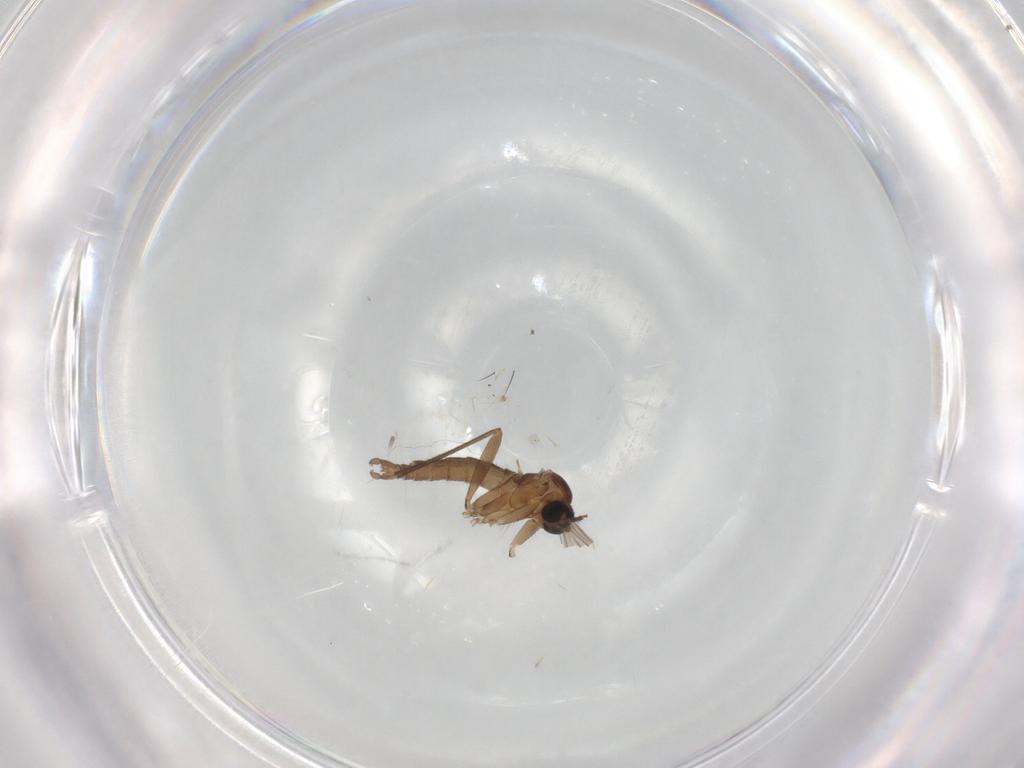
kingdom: Animalia
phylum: Arthropoda
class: Insecta
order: Diptera
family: Sciaridae
